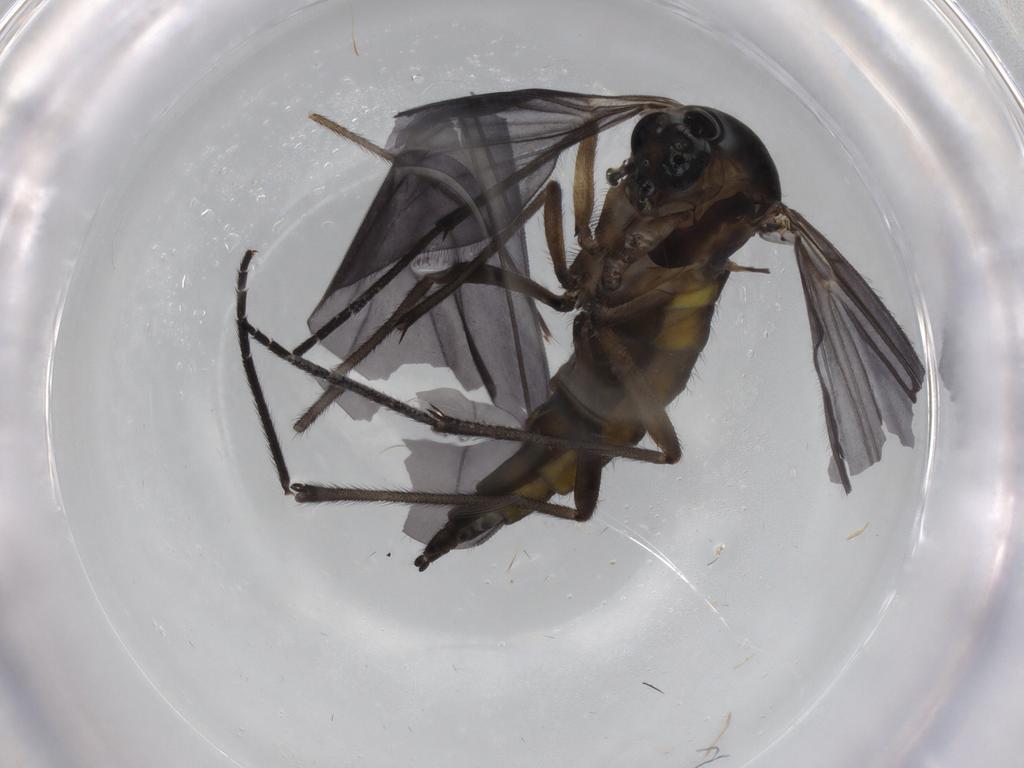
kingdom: Animalia
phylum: Arthropoda
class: Insecta
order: Diptera
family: Sciaridae
